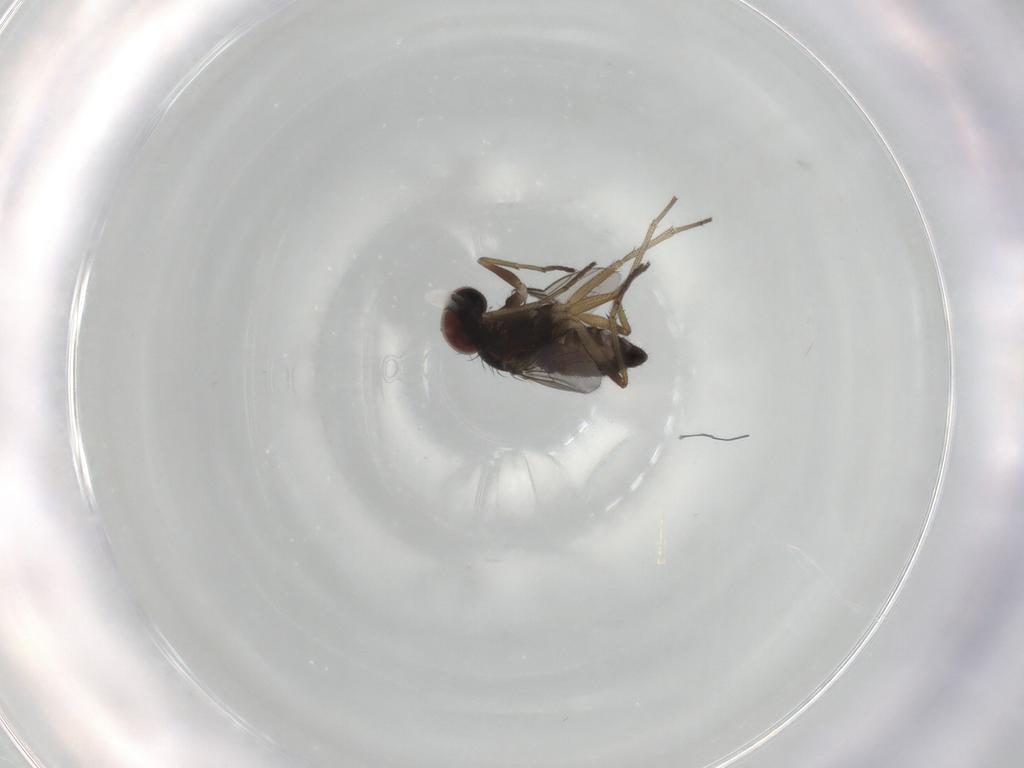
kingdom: Animalia
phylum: Arthropoda
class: Insecta
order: Diptera
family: Dolichopodidae
